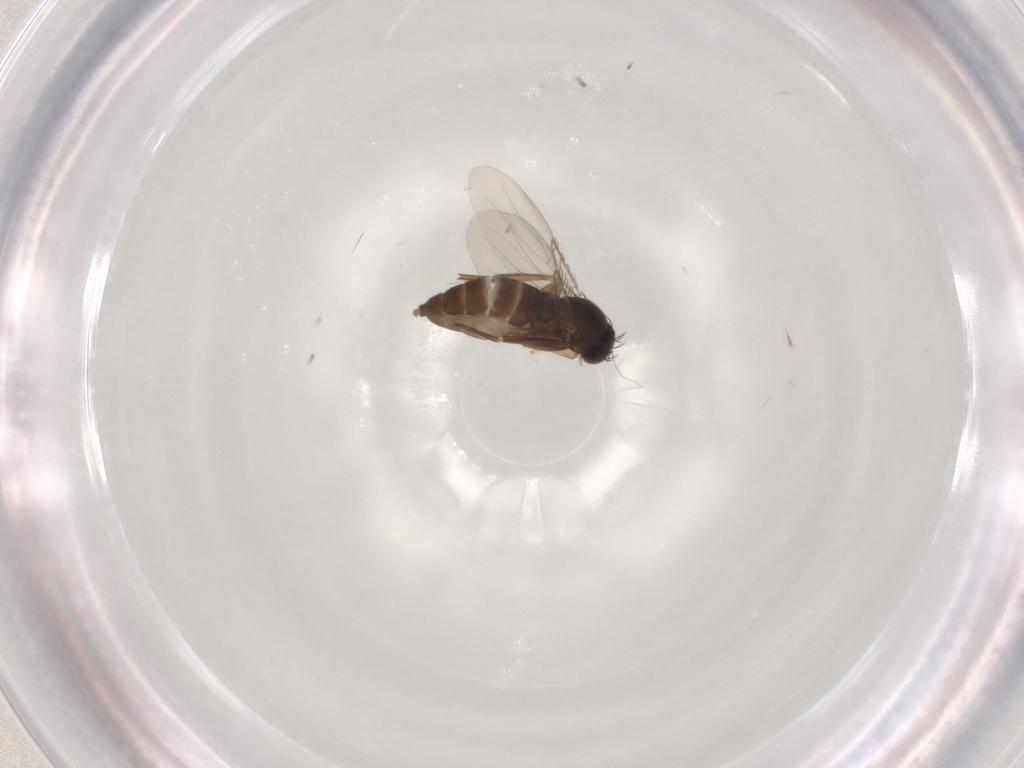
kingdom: Animalia
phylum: Arthropoda
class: Insecta
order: Diptera
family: Phoridae
